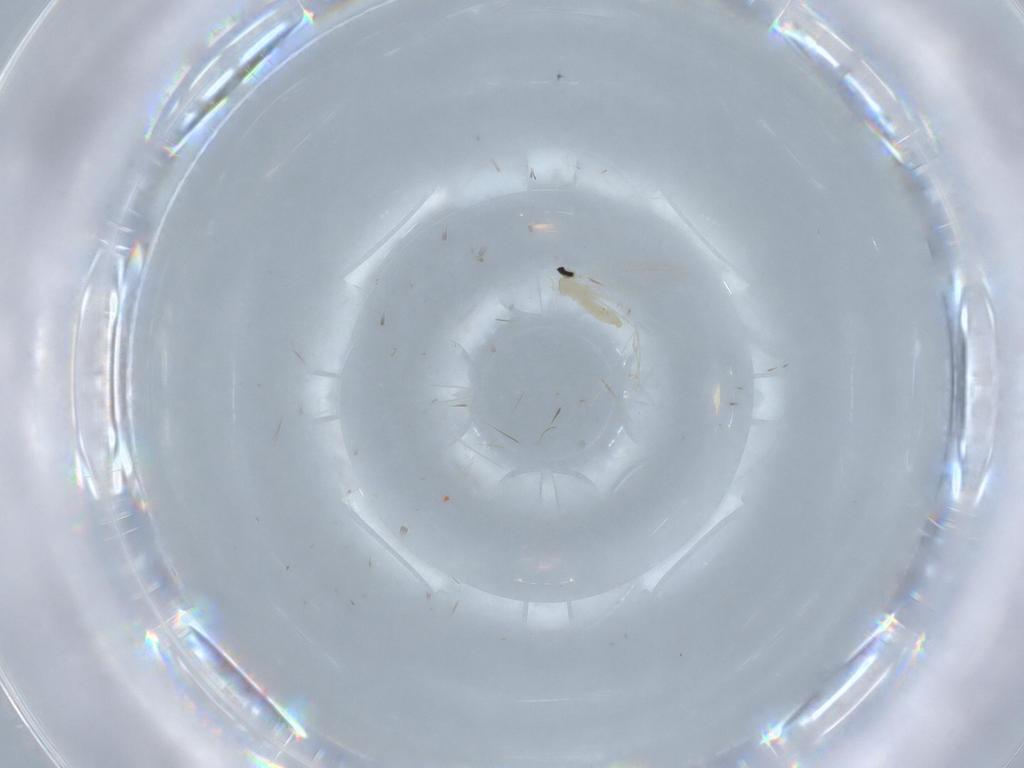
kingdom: Animalia
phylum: Arthropoda
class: Insecta
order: Diptera
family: Cecidomyiidae
